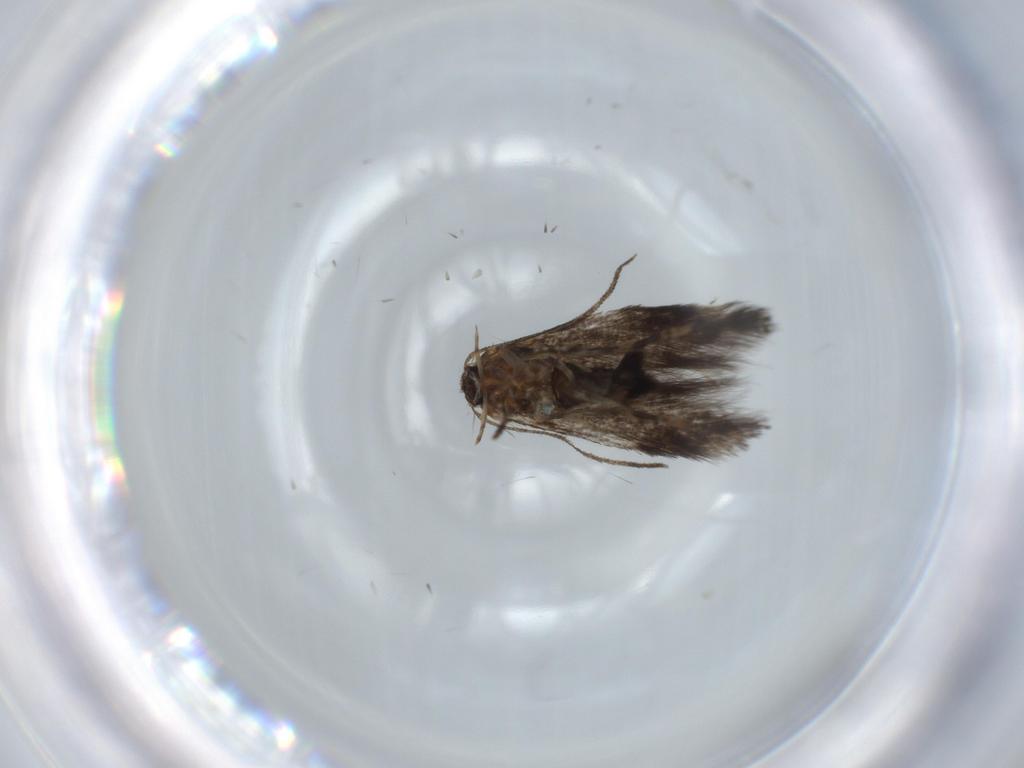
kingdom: Animalia
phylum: Arthropoda
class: Insecta
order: Lepidoptera
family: Cosmopterigidae
